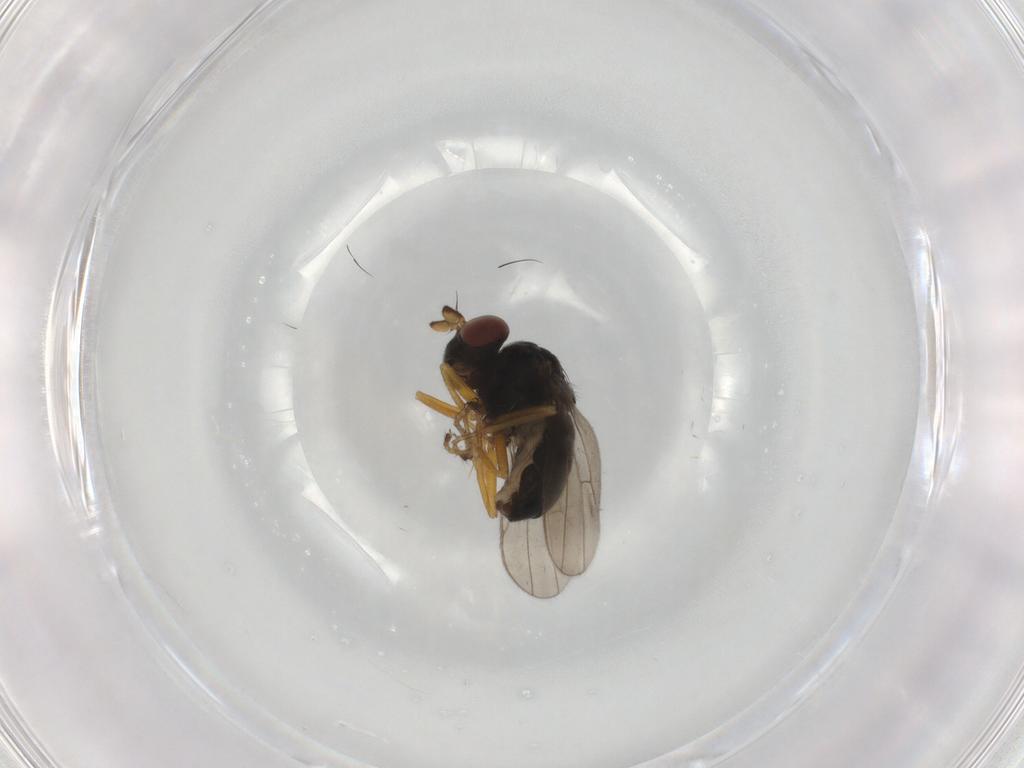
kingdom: Animalia
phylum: Arthropoda
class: Insecta
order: Diptera
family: Ephydridae
